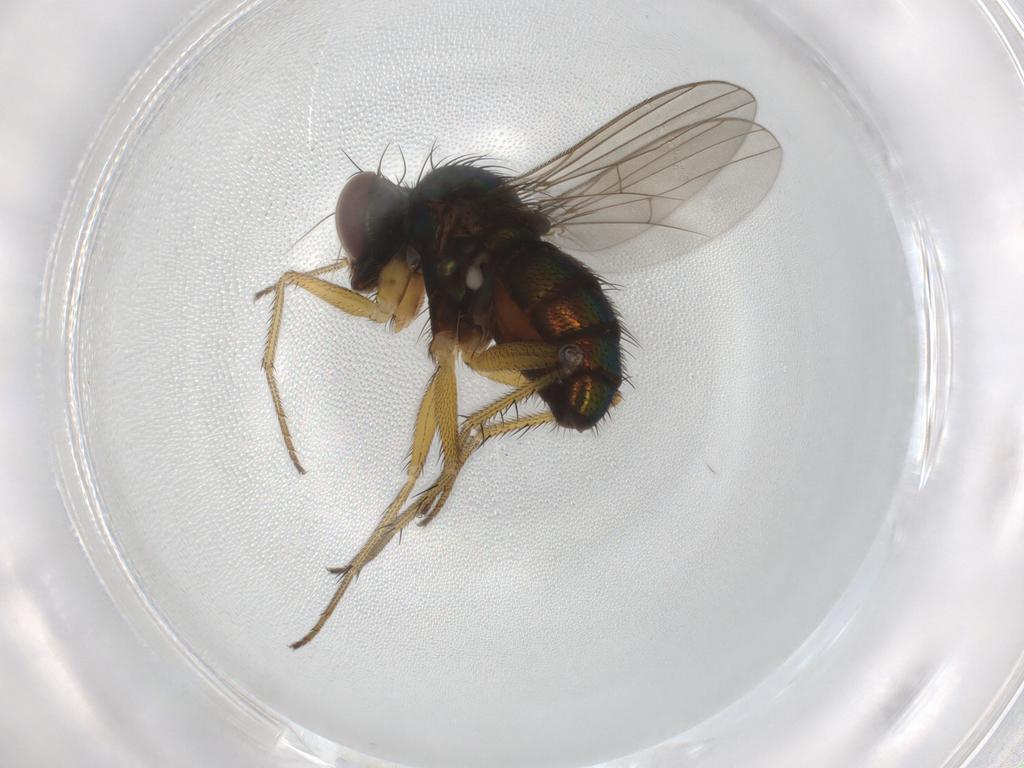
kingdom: Animalia
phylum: Arthropoda
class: Insecta
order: Diptera
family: Dolichopodidae
